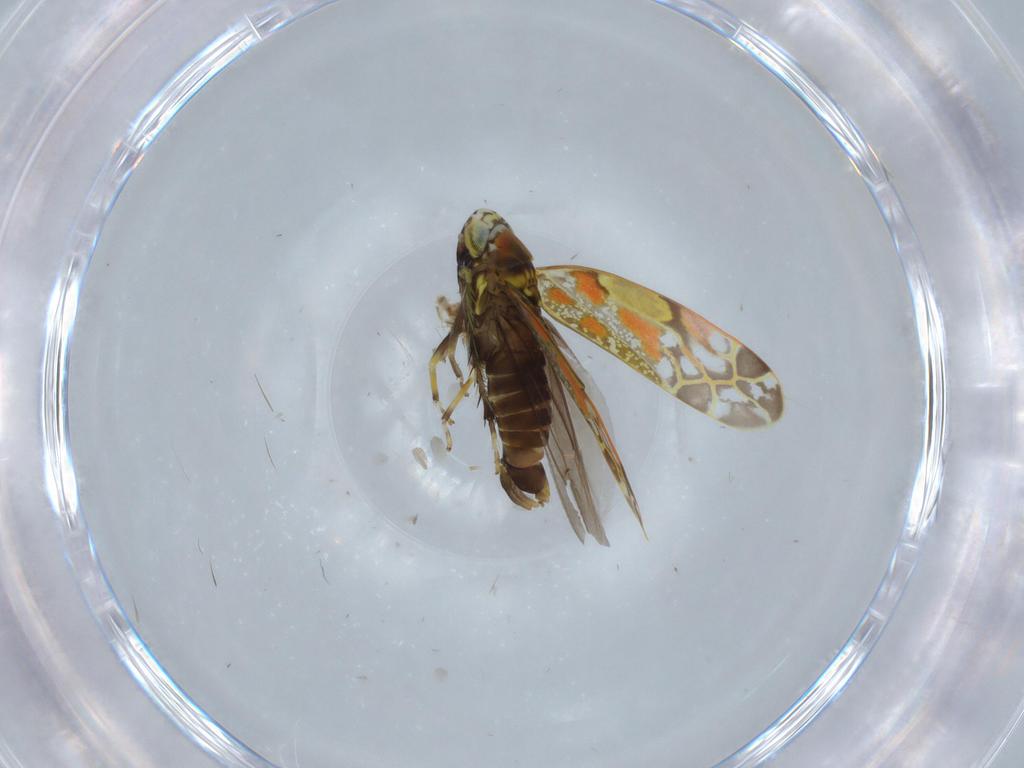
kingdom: Animalia
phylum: Arthropoda
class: Insecta
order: Hemiptera
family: Cicadellidae
